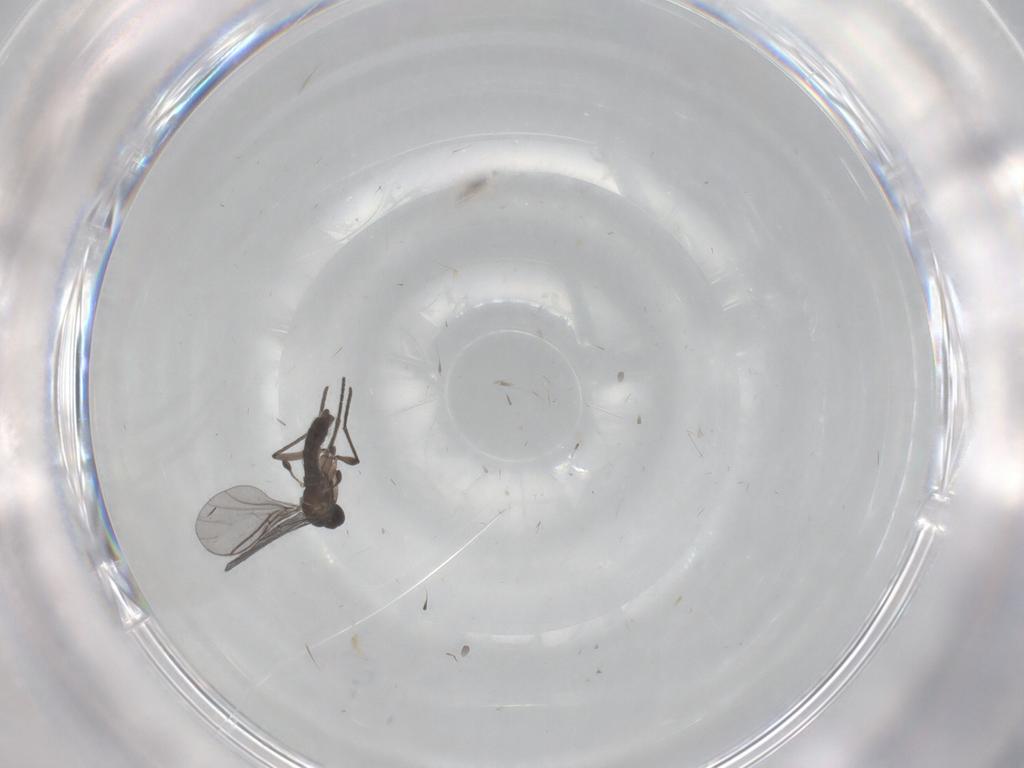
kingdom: Animalia
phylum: Arthropoda
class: Insecta
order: Diptera
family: Sciaridae
